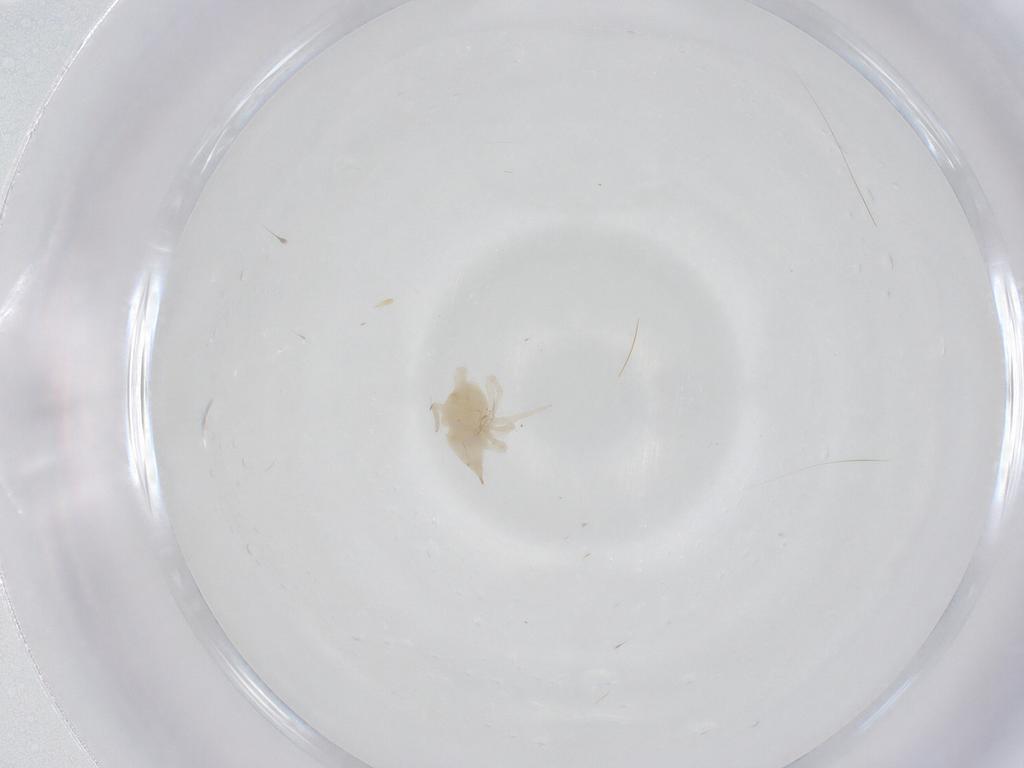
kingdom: Animalia
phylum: Arthropoda
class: Arachnida
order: Trombidiformes
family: Bdellidae
